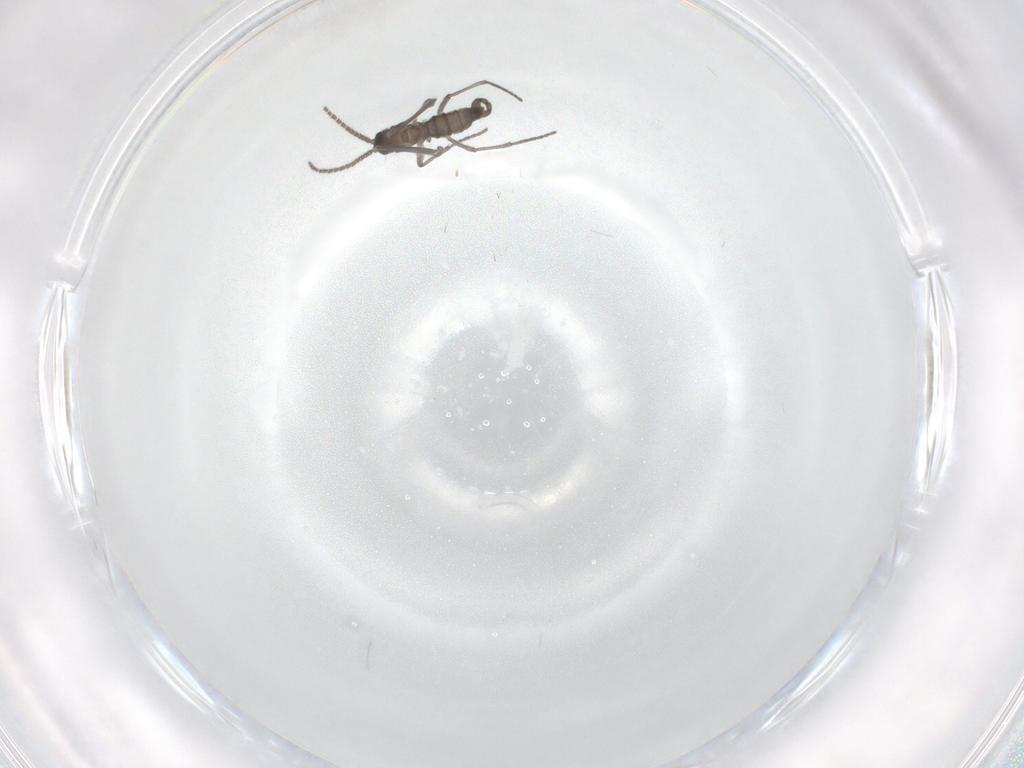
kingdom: Animalia
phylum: Arthropoda
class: Insecta
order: Diptera
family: Sciaridae
